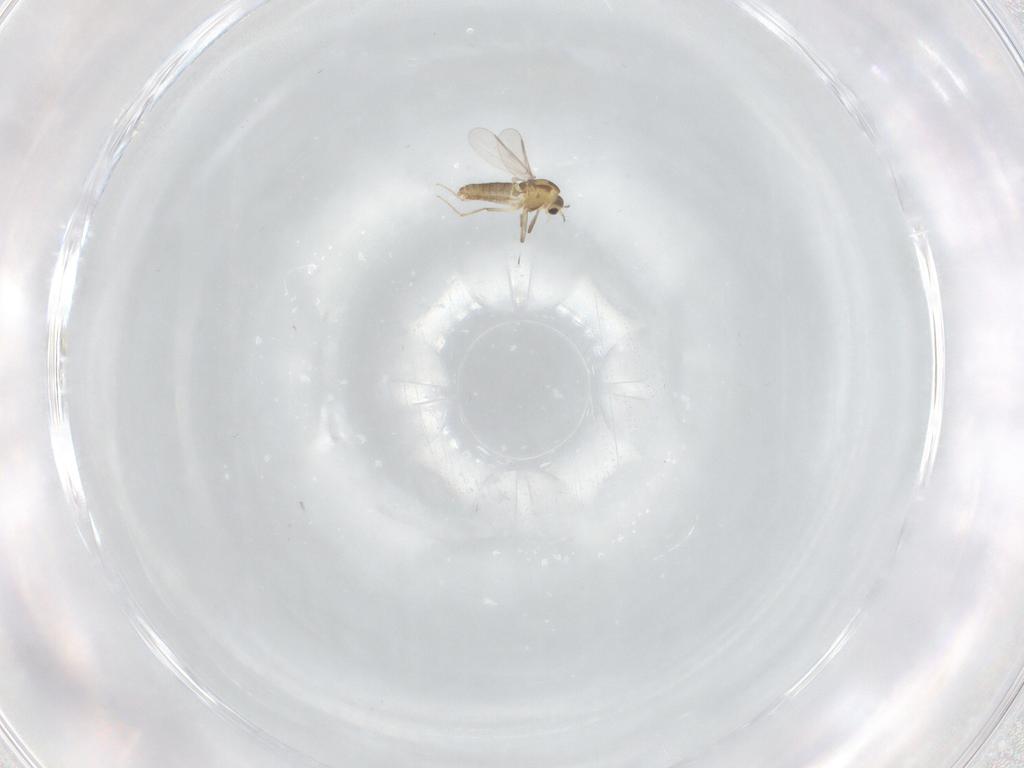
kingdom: Animalia
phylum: Arthropoda
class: Insecta
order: Diptera
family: Chironomidae
